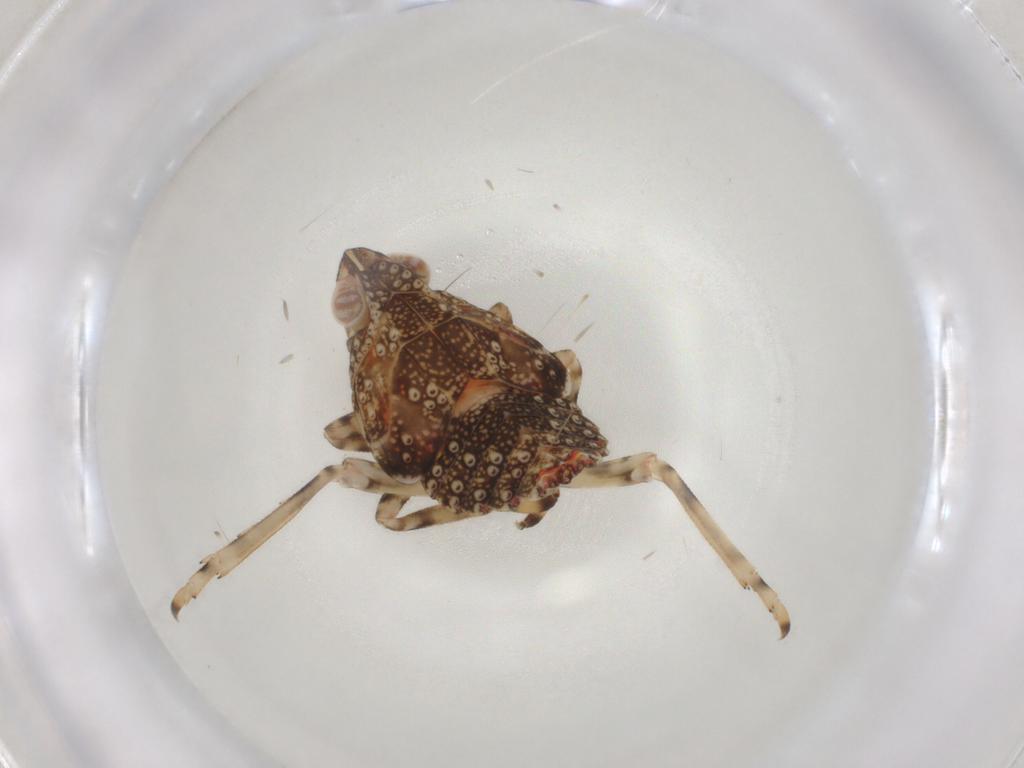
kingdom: Animalia
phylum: Arthropoda
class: Insecta
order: Hemiptera
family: Tropiduchidae
